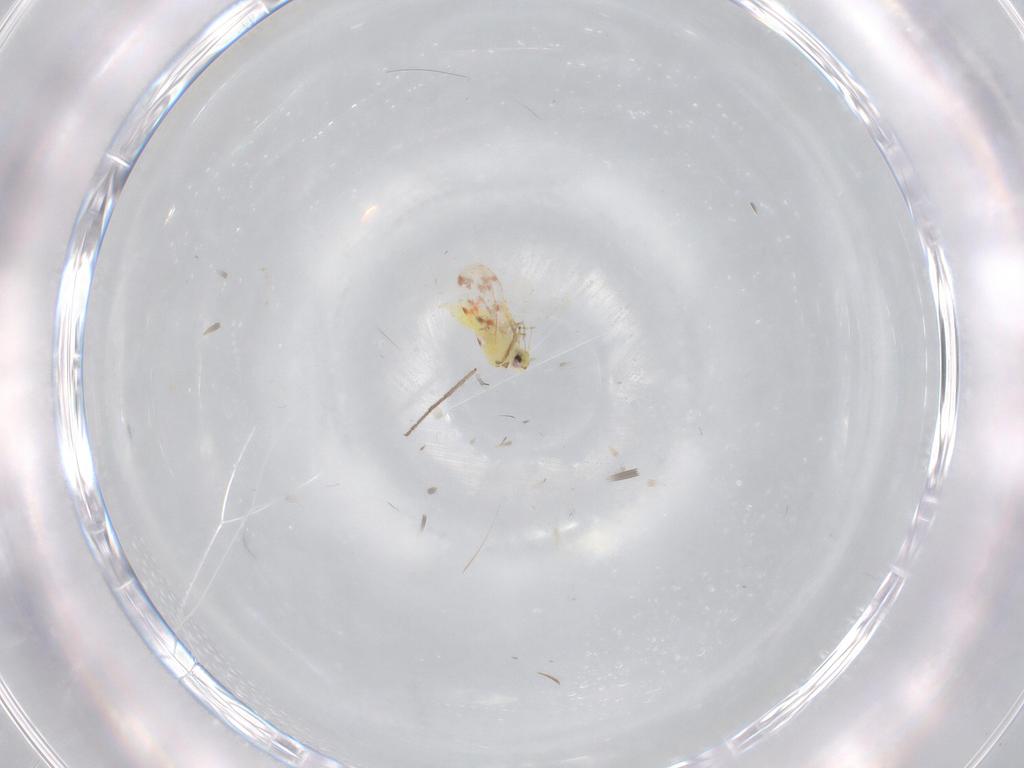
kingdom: Animalia
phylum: Arthropoda
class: Insecta
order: Hemiptera
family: Aleyrodidae
